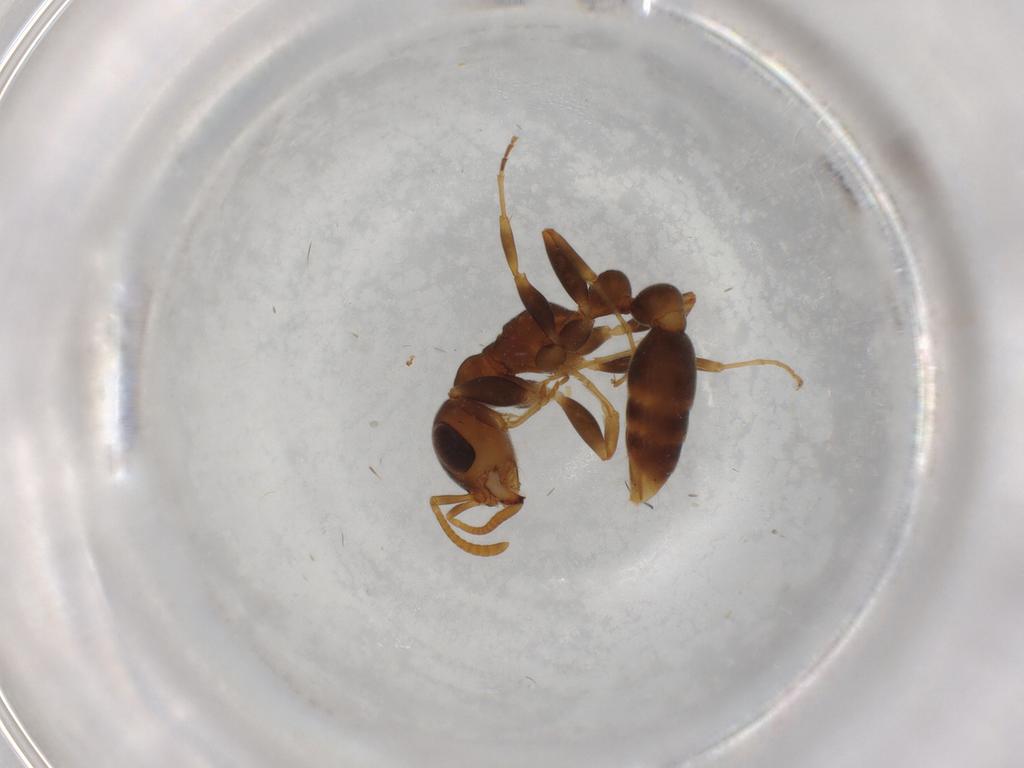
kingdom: Animalia
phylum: Arthropoda
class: Insecta
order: Hymenoptera
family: Formicidae
